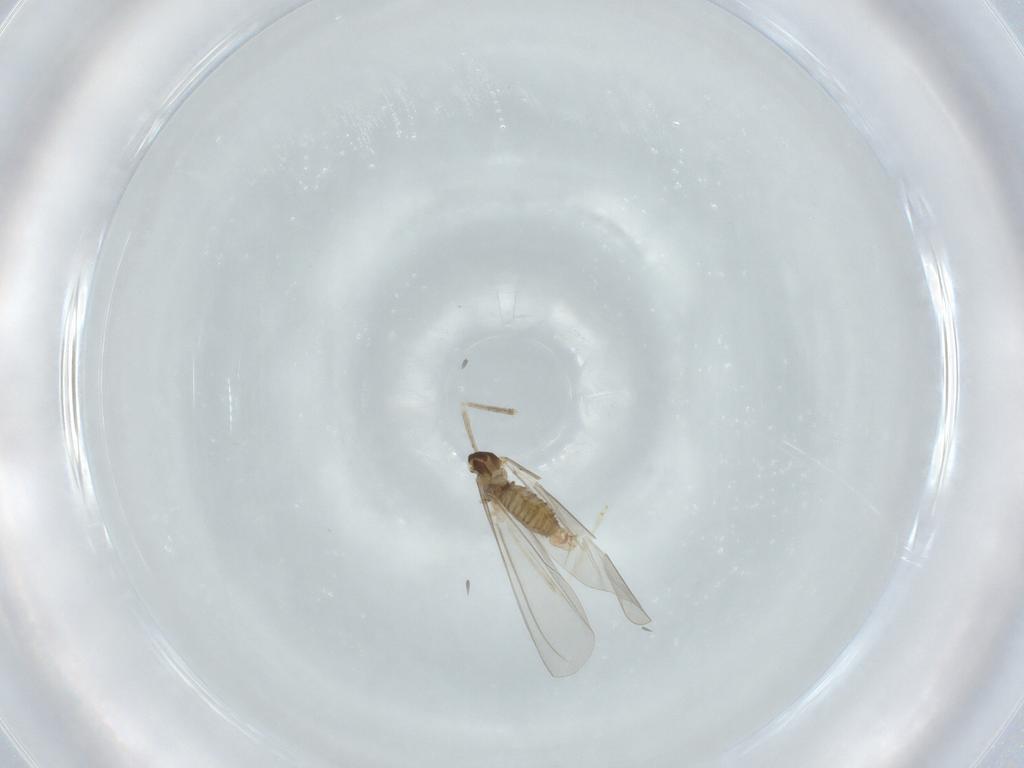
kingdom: Animalia
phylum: Arthropoda
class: Insecta
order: Diptera
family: Cecidomyiidae
